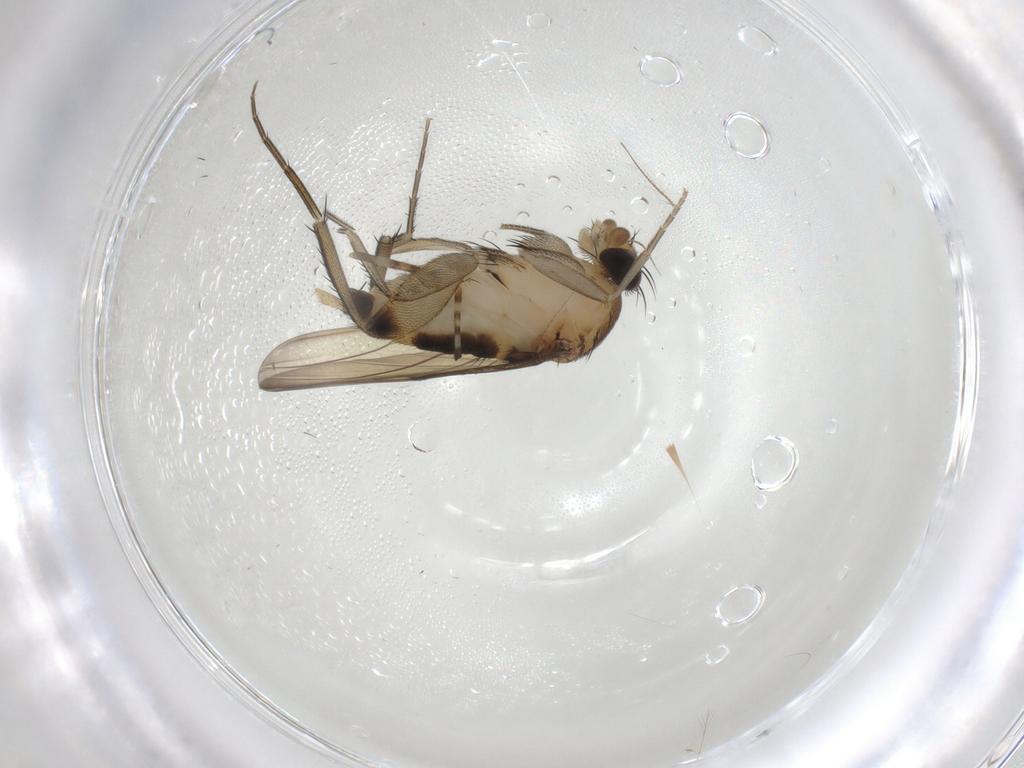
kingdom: Animalia
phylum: Arthropoda
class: Insecta
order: Diptera
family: Phoridae
